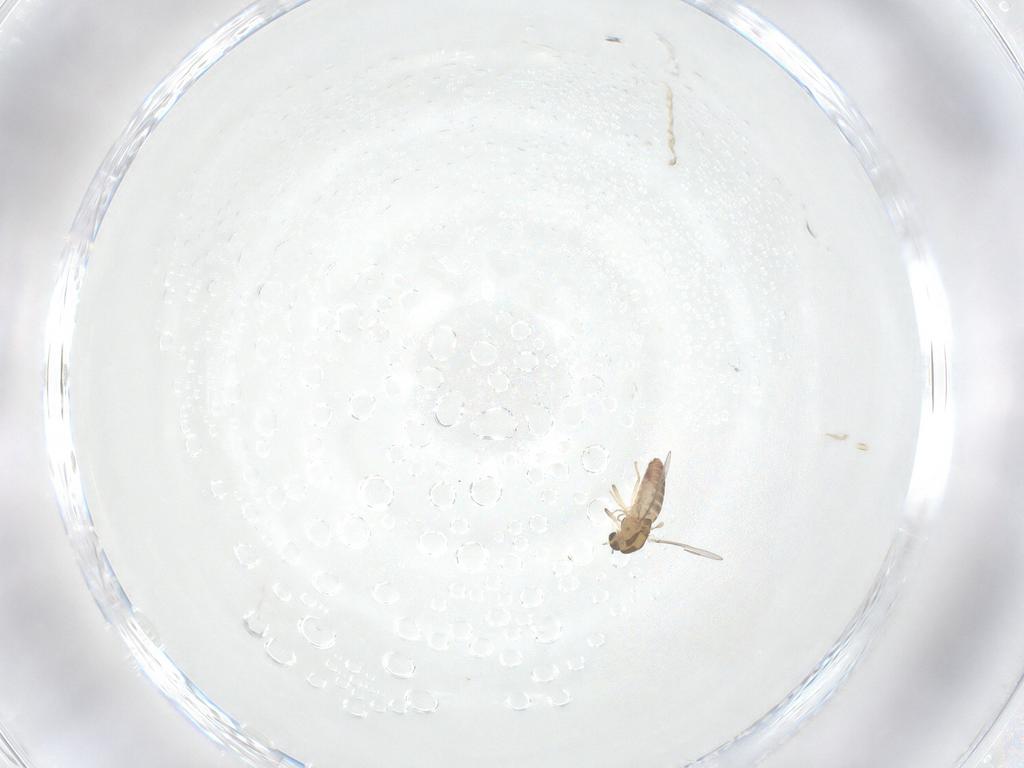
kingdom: Animalia
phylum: Arthropoda
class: Insecta
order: Diptera
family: Chironomidae
